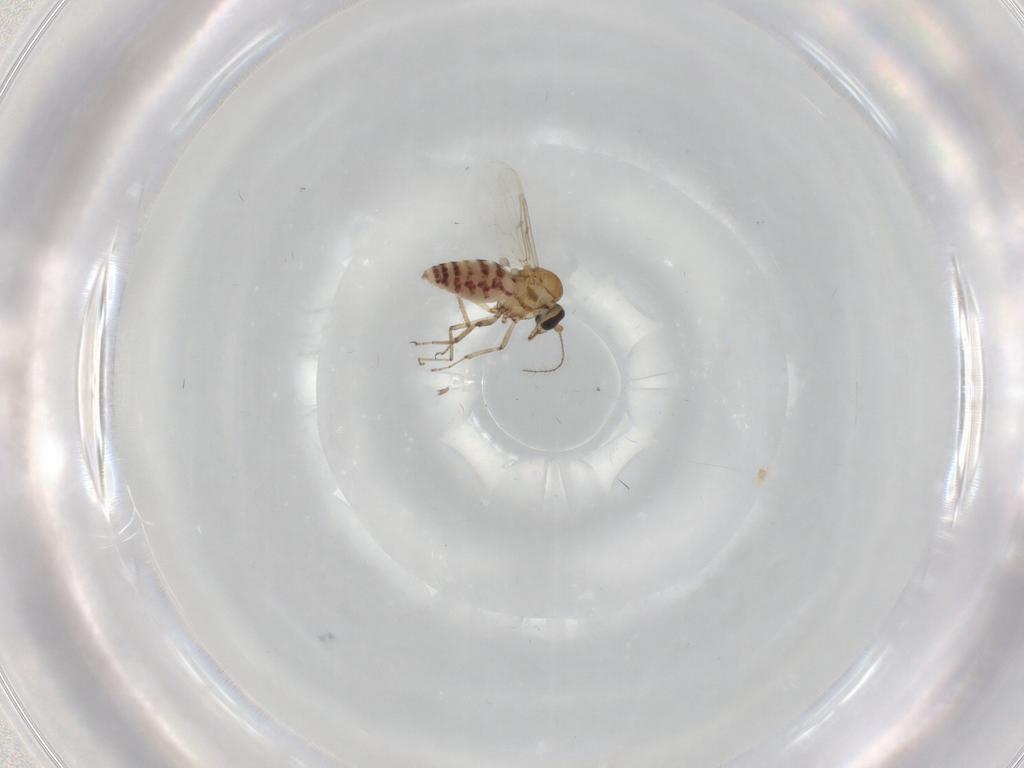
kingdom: Animalia
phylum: Arthropoda
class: Insecta
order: Diptera
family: Ceratopogonidae
